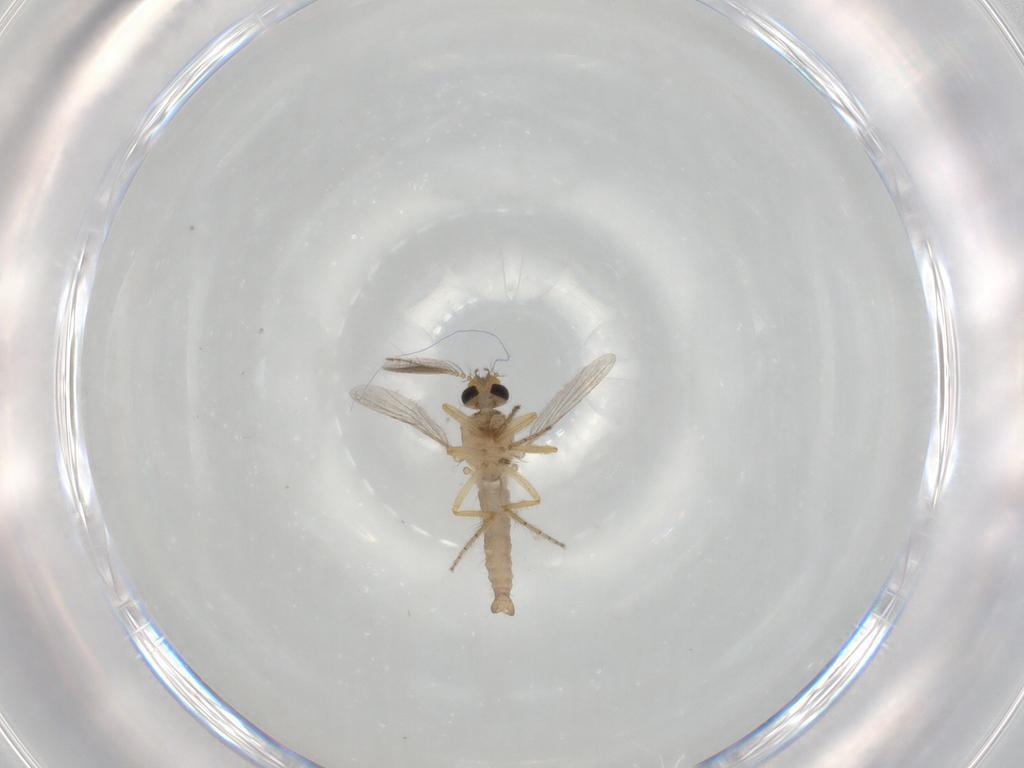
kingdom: Animalia
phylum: Arthropoda
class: Insecta
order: Diptera
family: Ceratopogonidae
